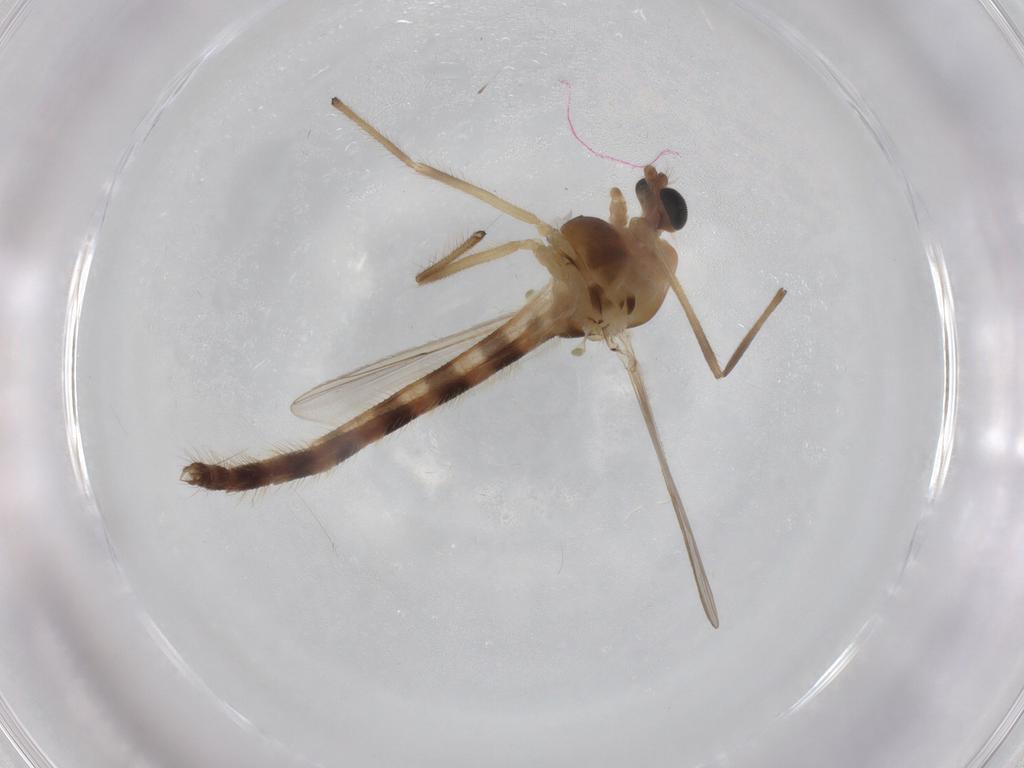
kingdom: Animalia
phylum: Arthropoda
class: Insecta
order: Diptera
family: Chironomidae
